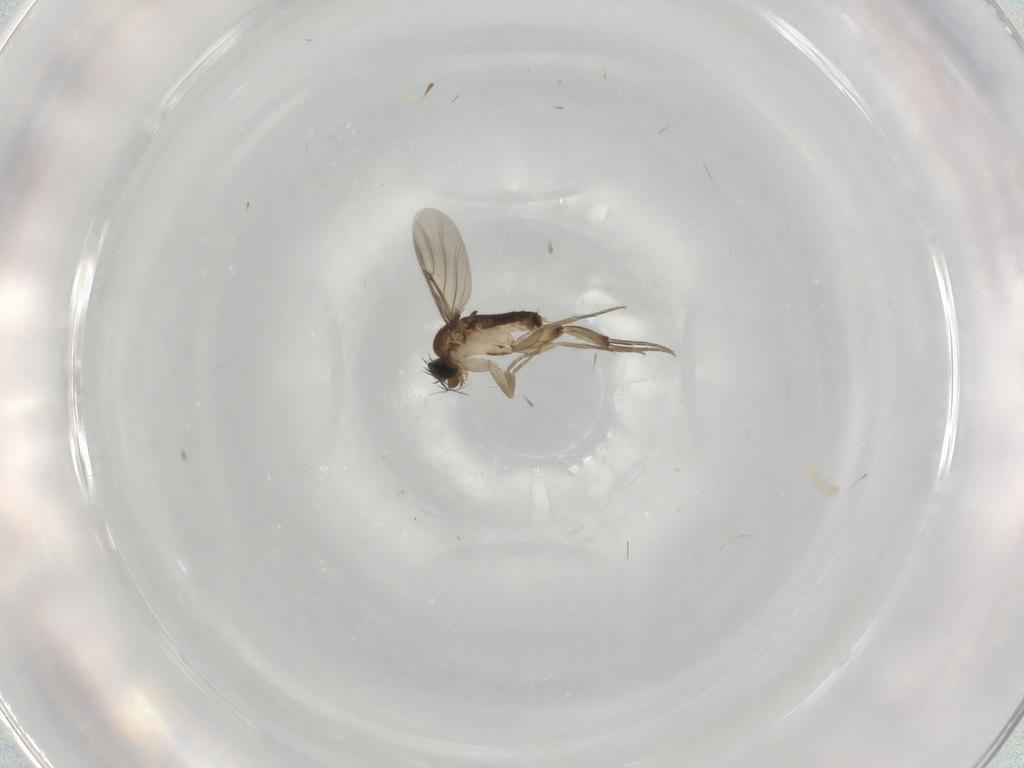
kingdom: Animalia
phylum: Arthropoda
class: Insecta
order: Diptera
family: Phoridae
